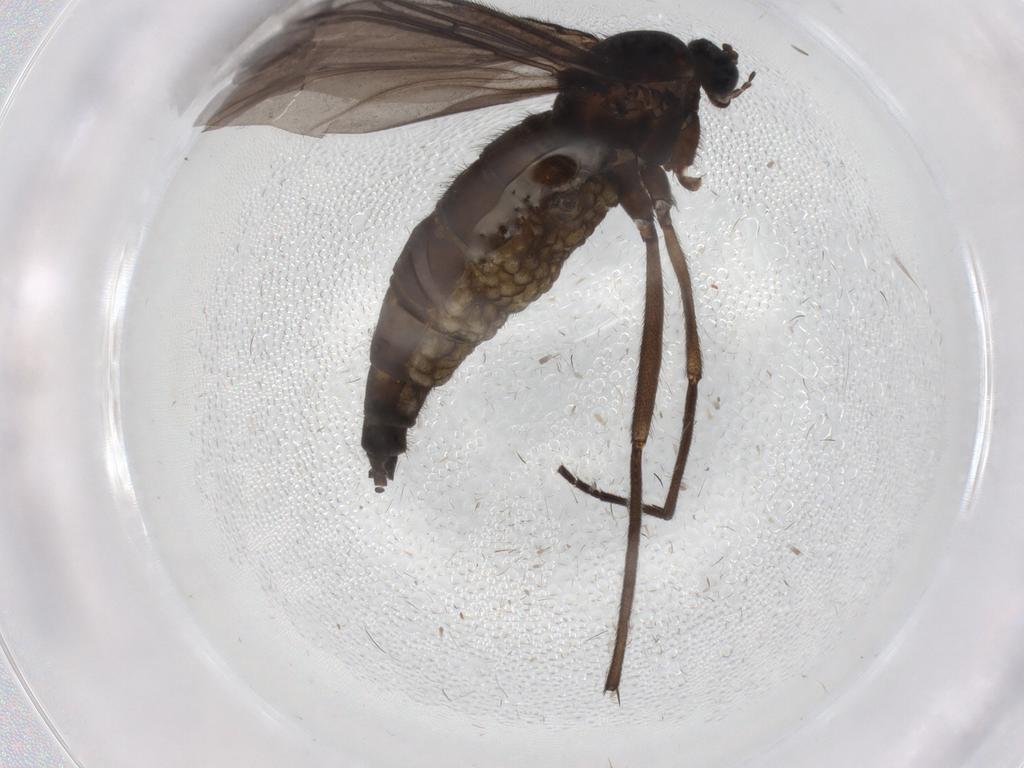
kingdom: Animalia
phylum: Arthropoda
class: Insecta
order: Diptera
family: Sciaridae
